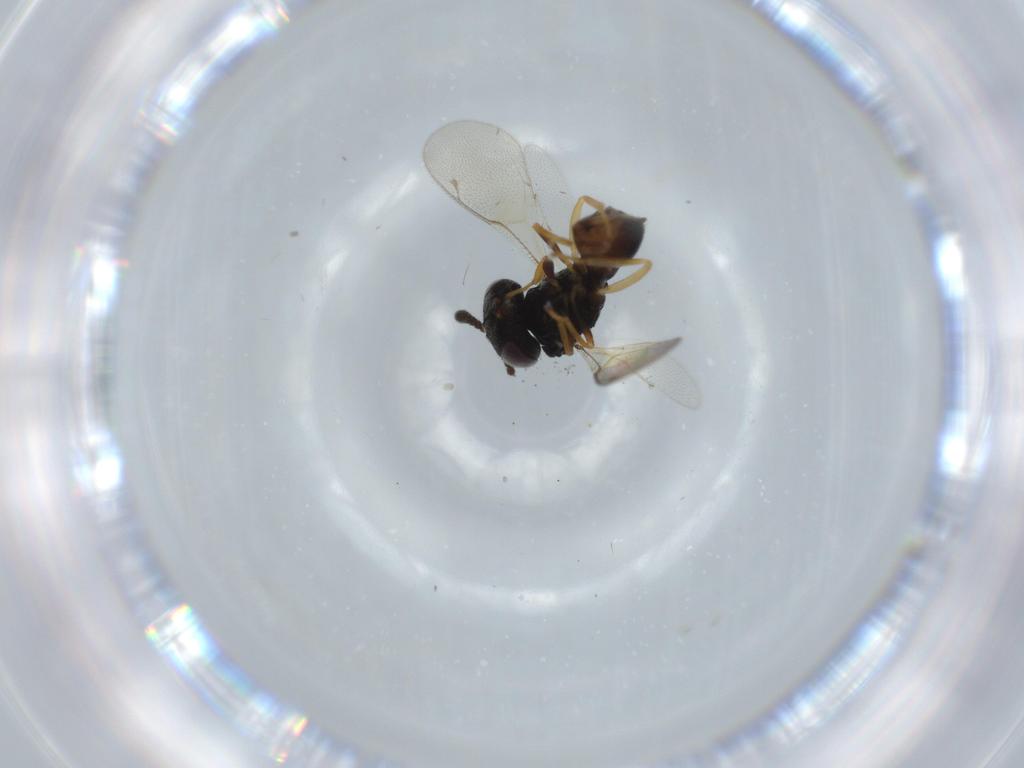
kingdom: Animalia
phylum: Arthropoda
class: Insecta
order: Hymenoptera
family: Pteromalidae
